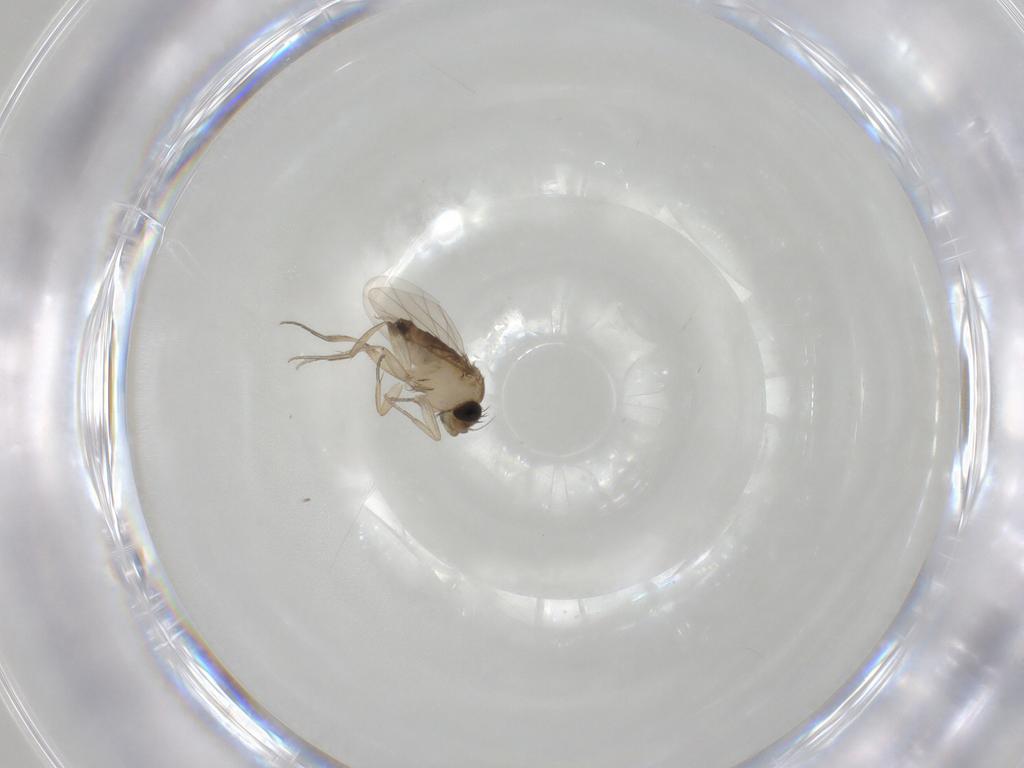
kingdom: Animalia
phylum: Arthropoda
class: Insecta
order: Diptera
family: Phoridae
